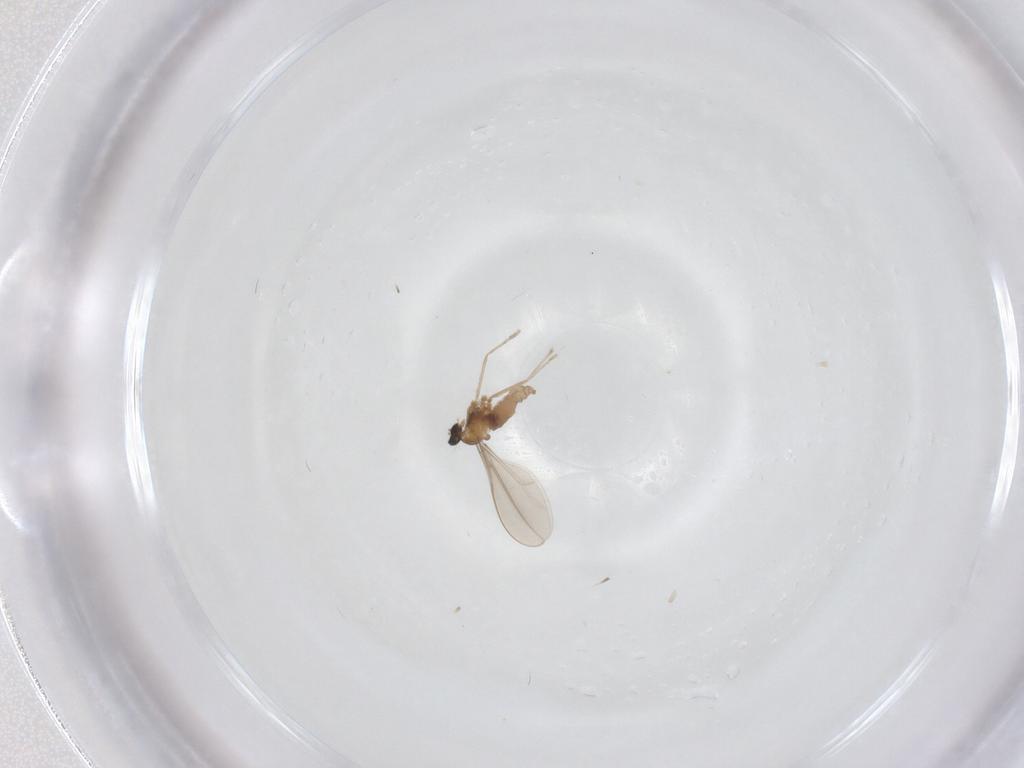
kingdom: Animalia
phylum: Arthropoda
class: Insecta
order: Diptera
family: Cecidomyiidae
